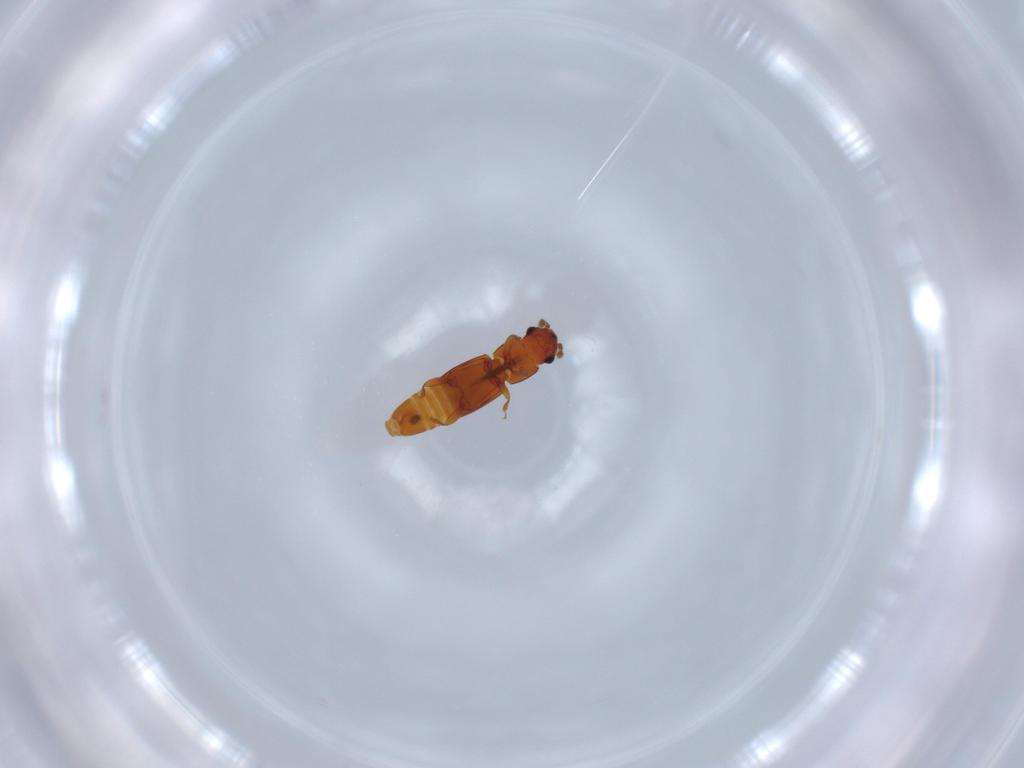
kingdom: Animalia
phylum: Arthropoda
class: Insecta
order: Coleoptera
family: Smicripidae
